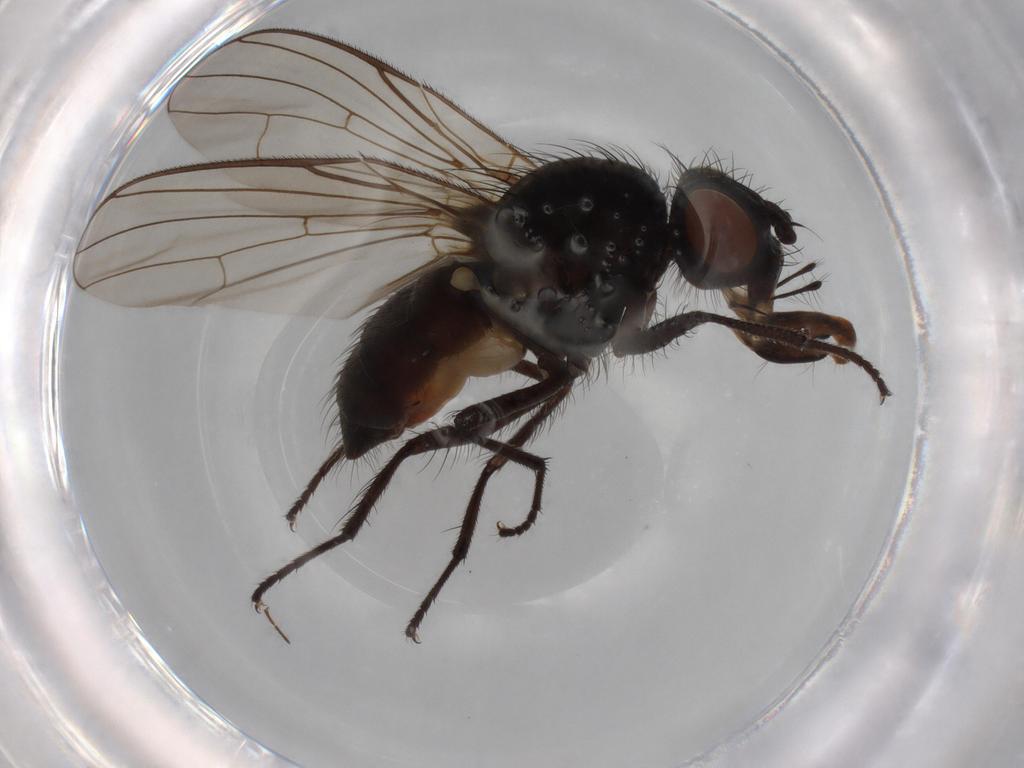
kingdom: Animalia
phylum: Arthropoda
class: Insecta
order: Diptera
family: Anthomyiidae
